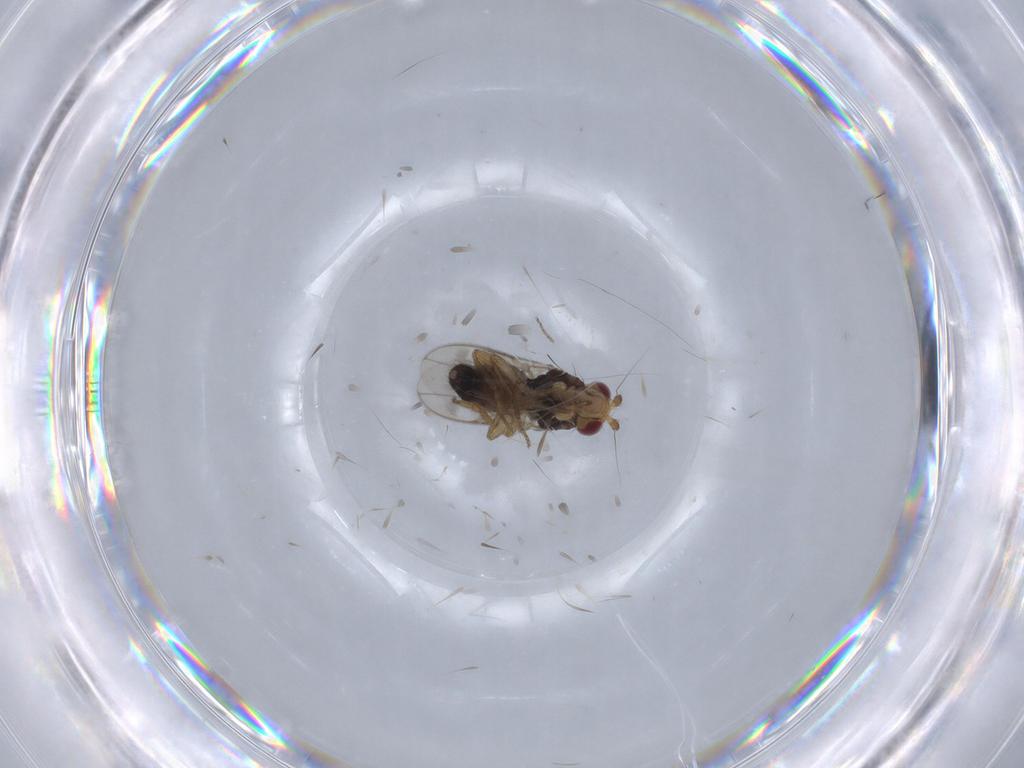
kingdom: Animalia
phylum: Arthropoda
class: Insecta
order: Diptera
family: Sphaeroceridae
